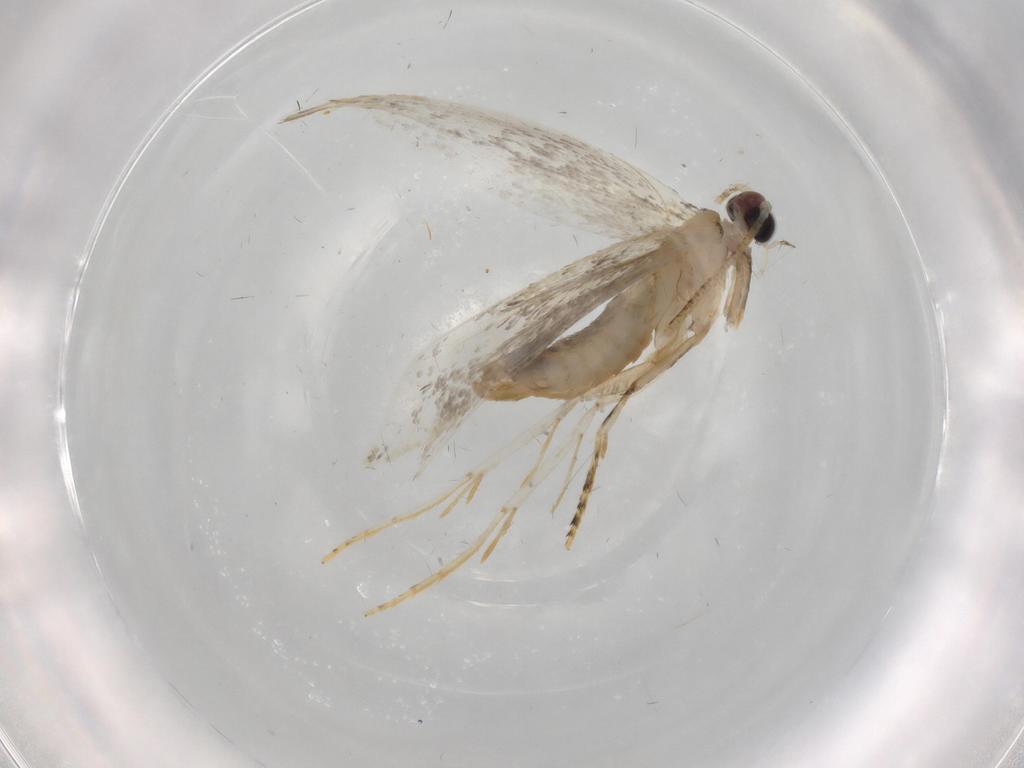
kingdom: Animalia
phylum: Arthropoda
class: Insecta
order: Lepidoptera
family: Tineidae
